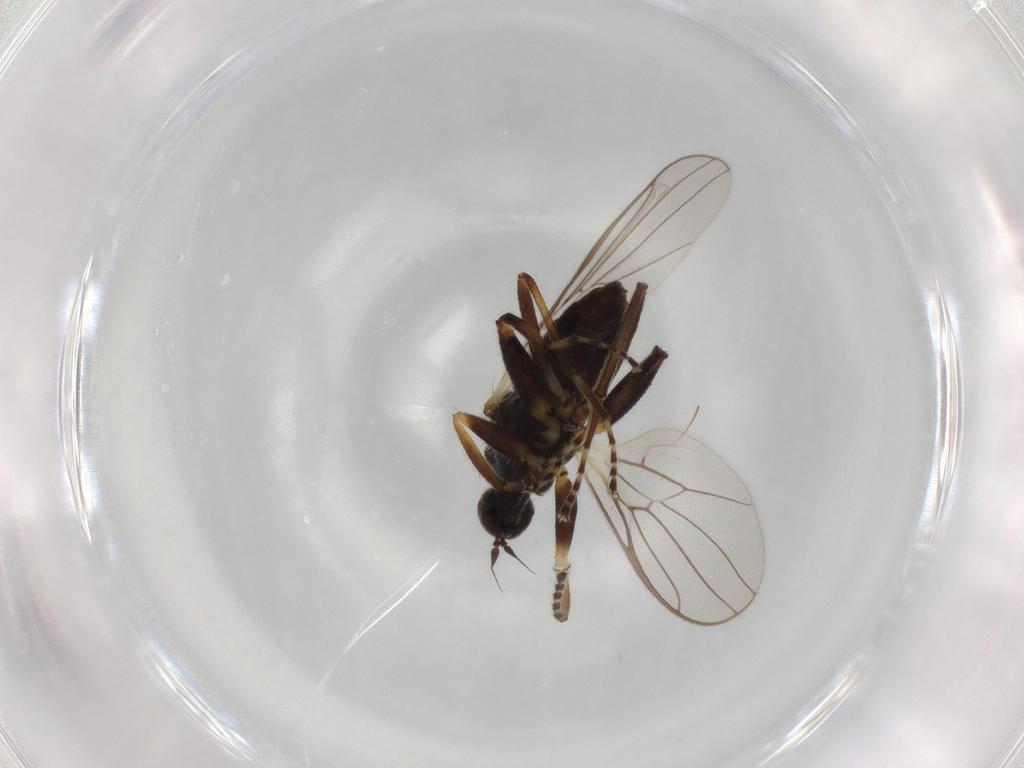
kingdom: Animalia
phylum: Arthropoda
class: Insecta
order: Diptera
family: Hybotidae
